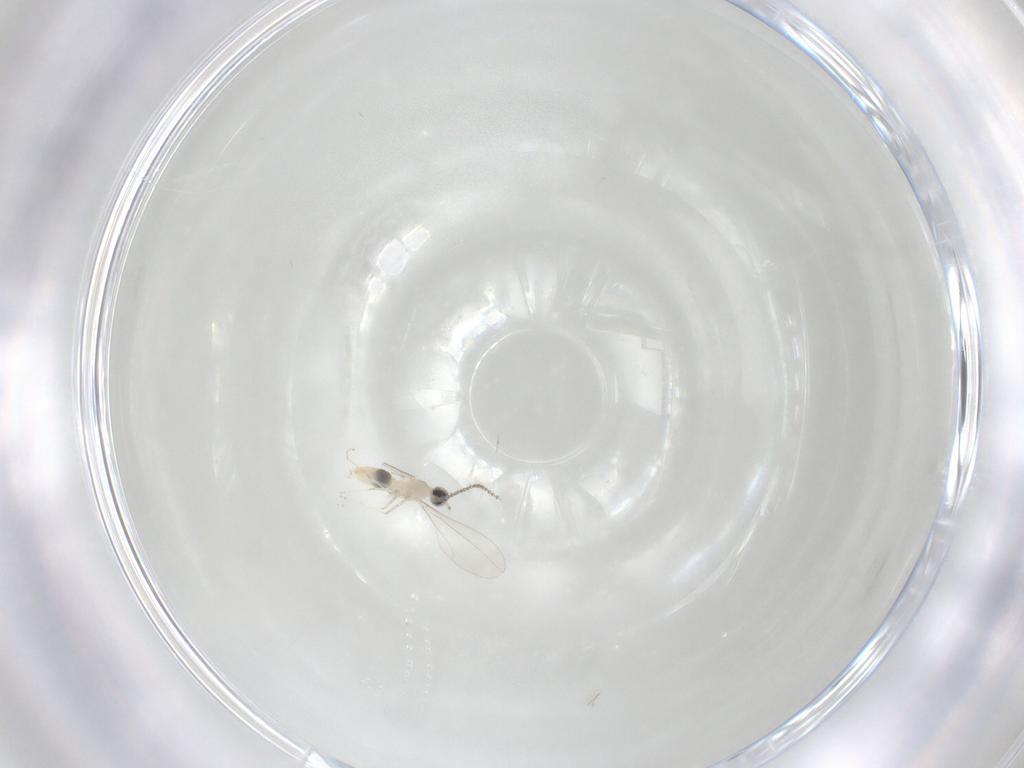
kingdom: Animalia
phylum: Arthropoda
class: Insecta
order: Diptera
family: Cecidomyiidae
